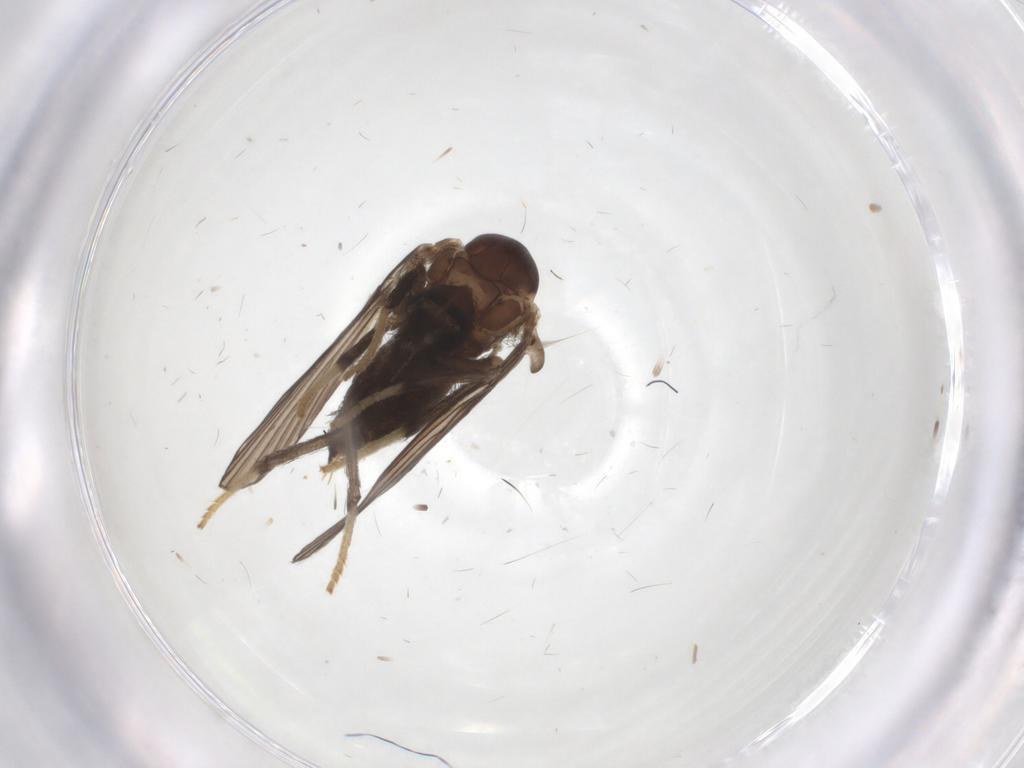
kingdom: Animalia
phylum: Arthropoda
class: Insecta
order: Diptera
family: Psychodidae
